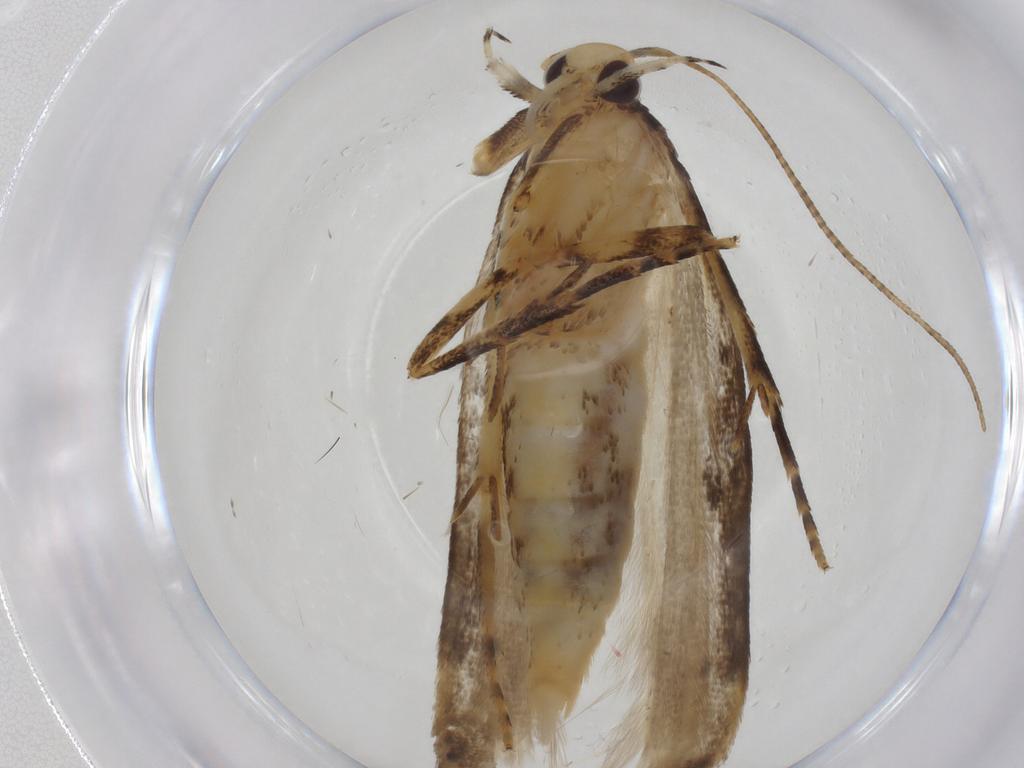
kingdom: Animalia
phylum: Arthropoda
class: Insecta
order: Lepidoptera
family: Gelechiidae
